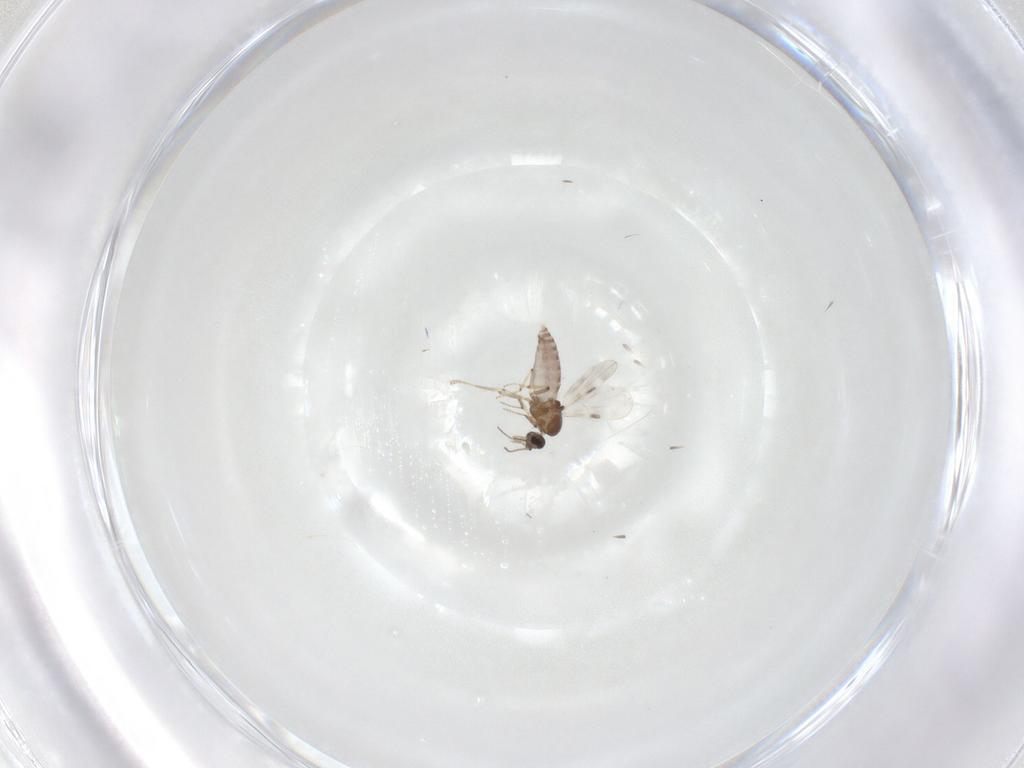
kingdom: Animalia
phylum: Arthropoda
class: Insecta
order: Diptera
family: Sciaridae
